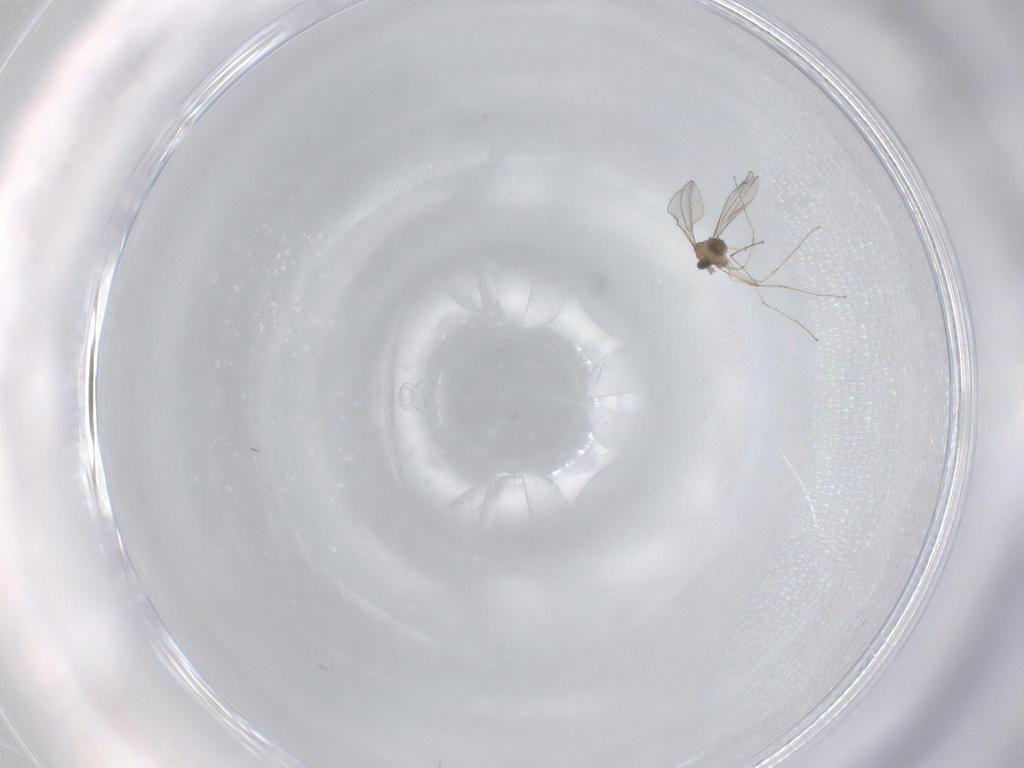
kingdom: Animalia
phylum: Arthropoda
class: Insecta
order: Diptera
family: Cecidomyiidae
